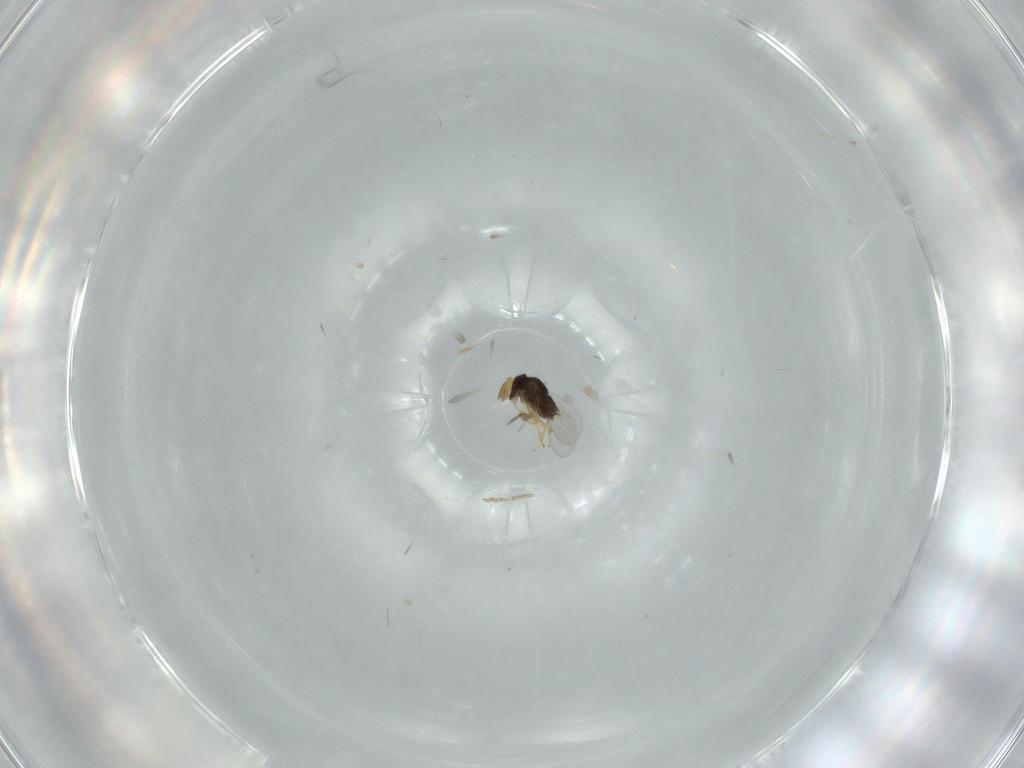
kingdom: Animalia
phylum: Arthropoda
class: Insecta
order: Hymenoptera
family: Encyrtidae
